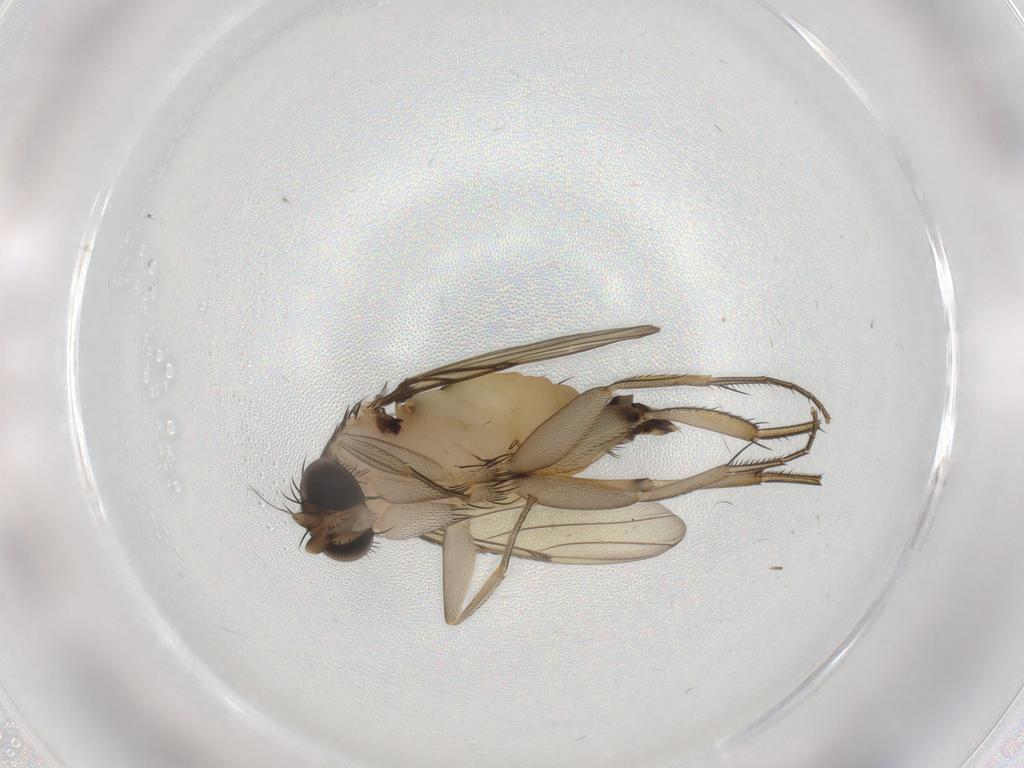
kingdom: Animalia
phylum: Arthropoda
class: Insecta
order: Diptera
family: Phoridae
